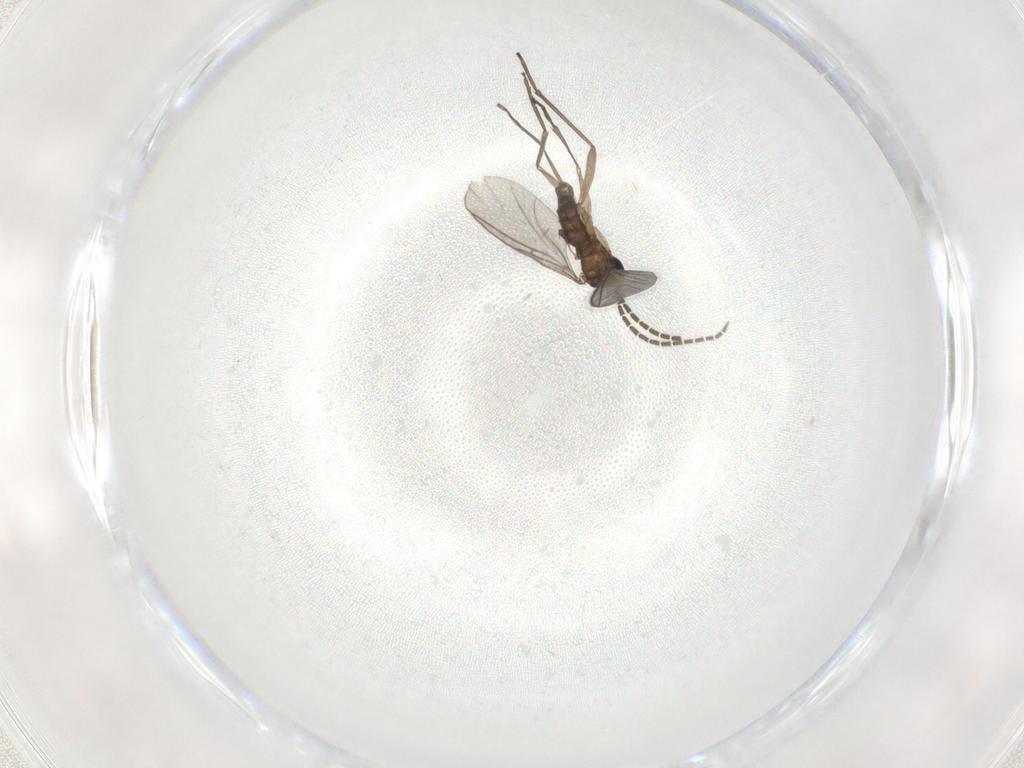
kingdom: Animalia
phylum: Arthropoda
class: Insecta
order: Diptera
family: Sciaridae
